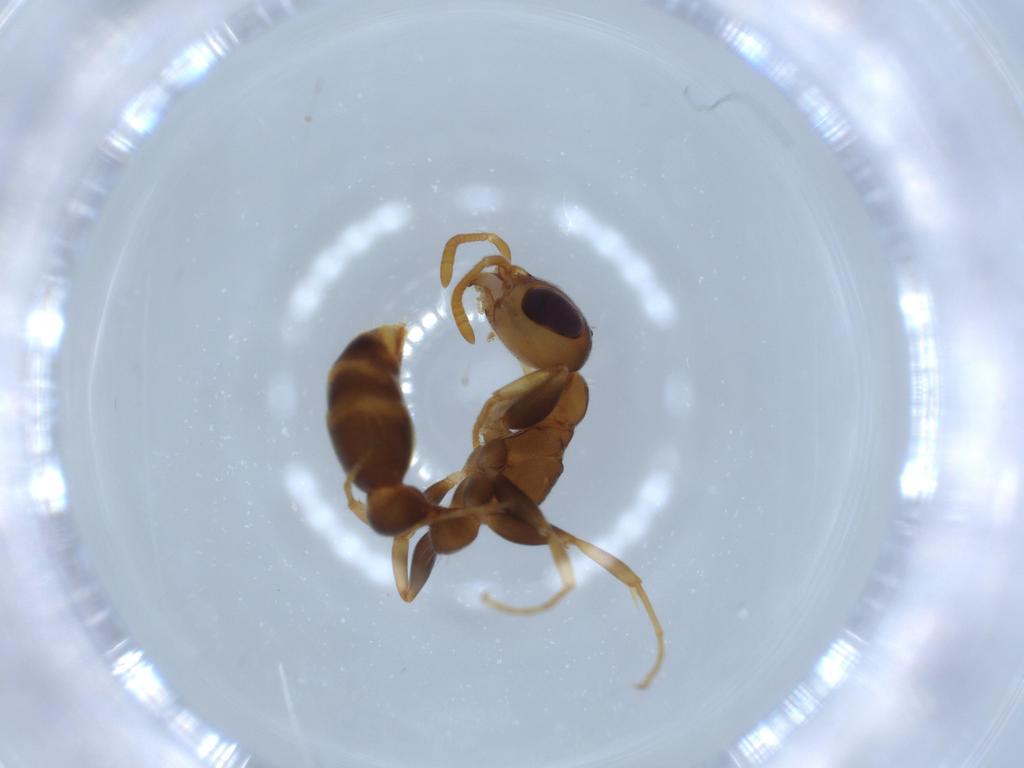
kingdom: Animalia
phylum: Arthropoda
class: Insecta
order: Hymenoptera
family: Formicidae
